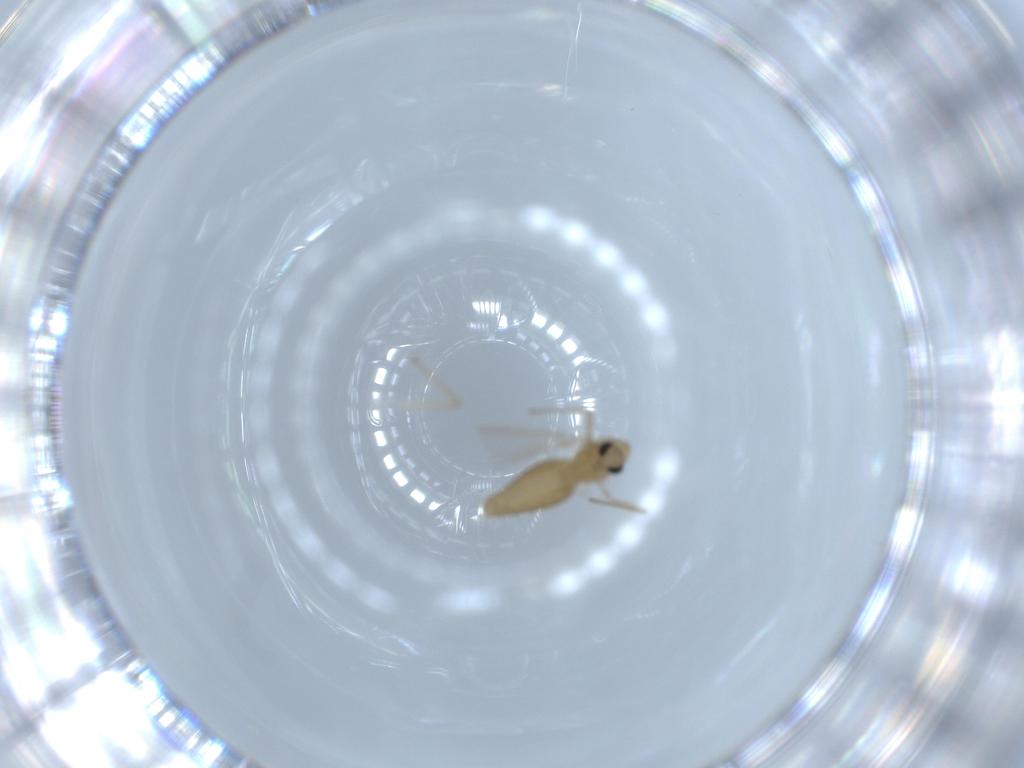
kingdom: Animalia
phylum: Arthropoda
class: Insecta
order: Diptera
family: Chironomidae
